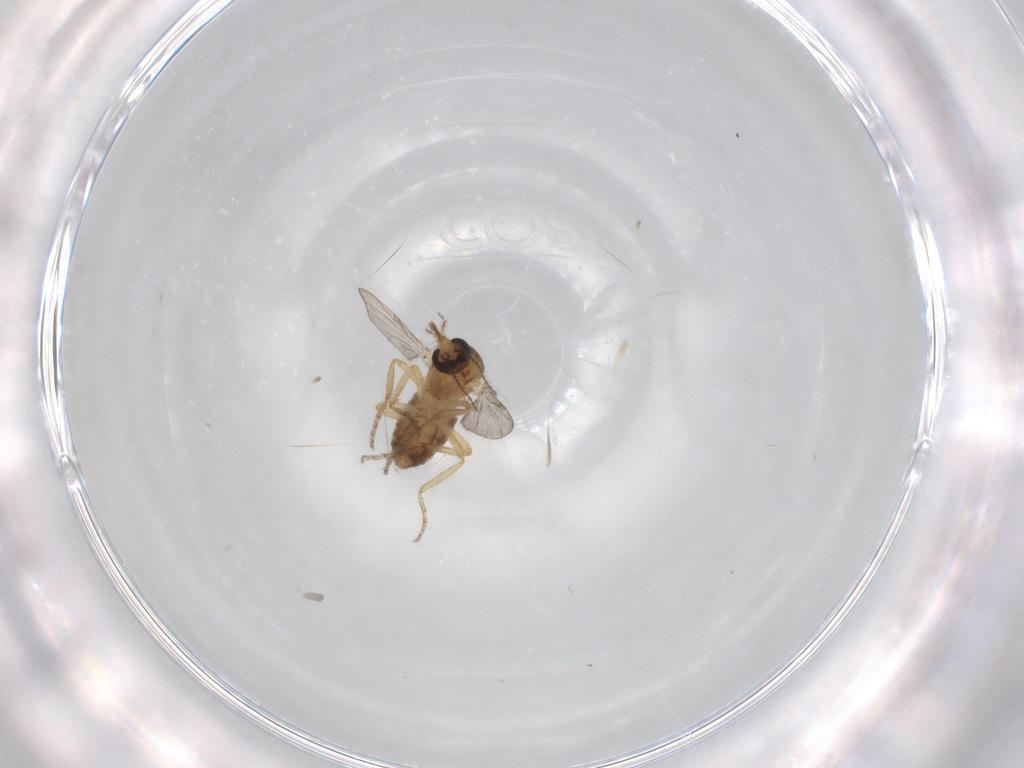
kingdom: Animalia
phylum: Arthropoda
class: Insecta
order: Diptera
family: Ceratopogonidae
